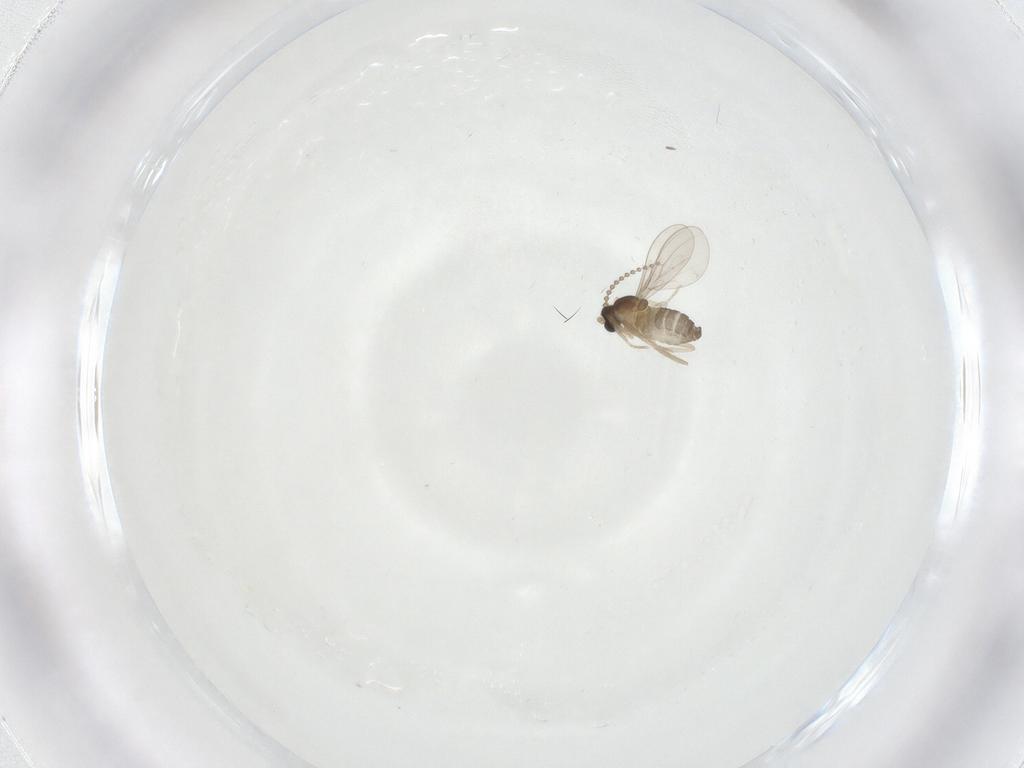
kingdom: Animalia
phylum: Arthropoda
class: Insecta
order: Diptera
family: Cecidomyiidae
